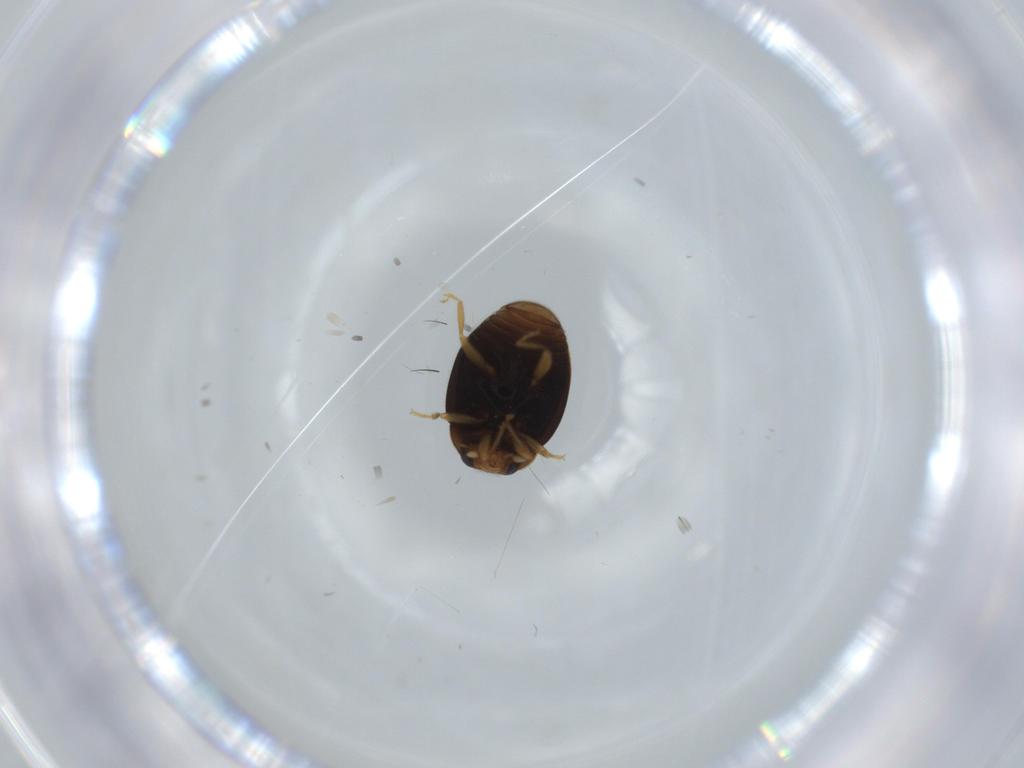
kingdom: Animalia
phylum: Arthropoda
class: Insecta
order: Coleoptera
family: Coccinellidae
